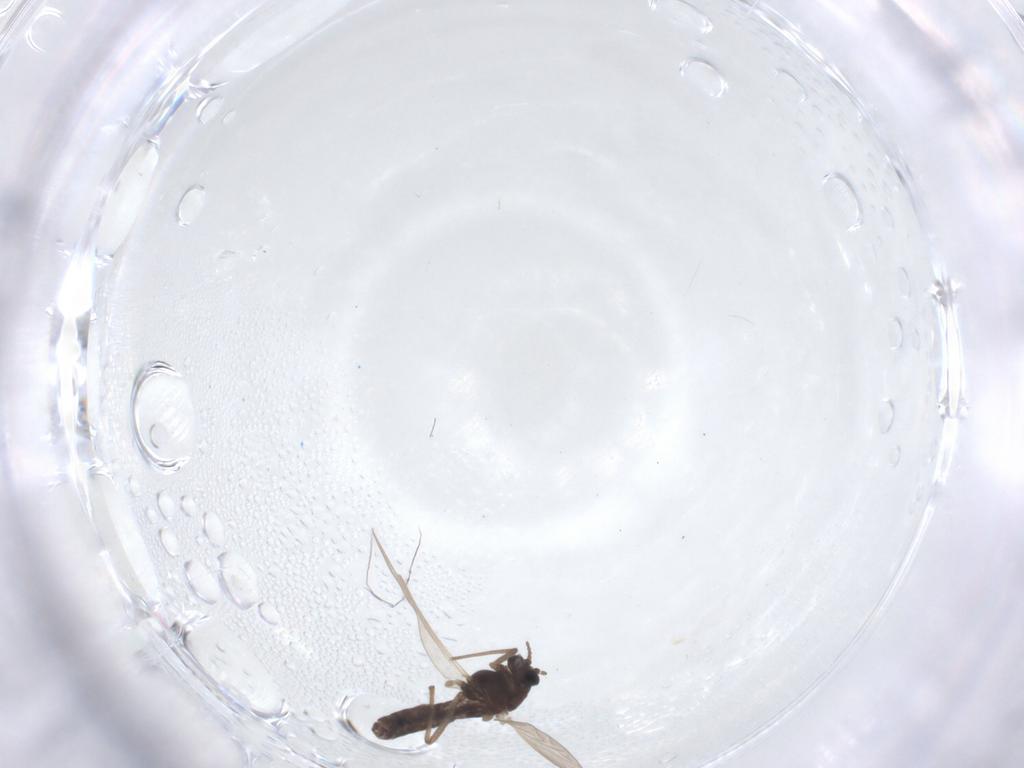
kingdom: Animalia
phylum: Arthropoda
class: Insecta
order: Diptera
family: Chironomidae
